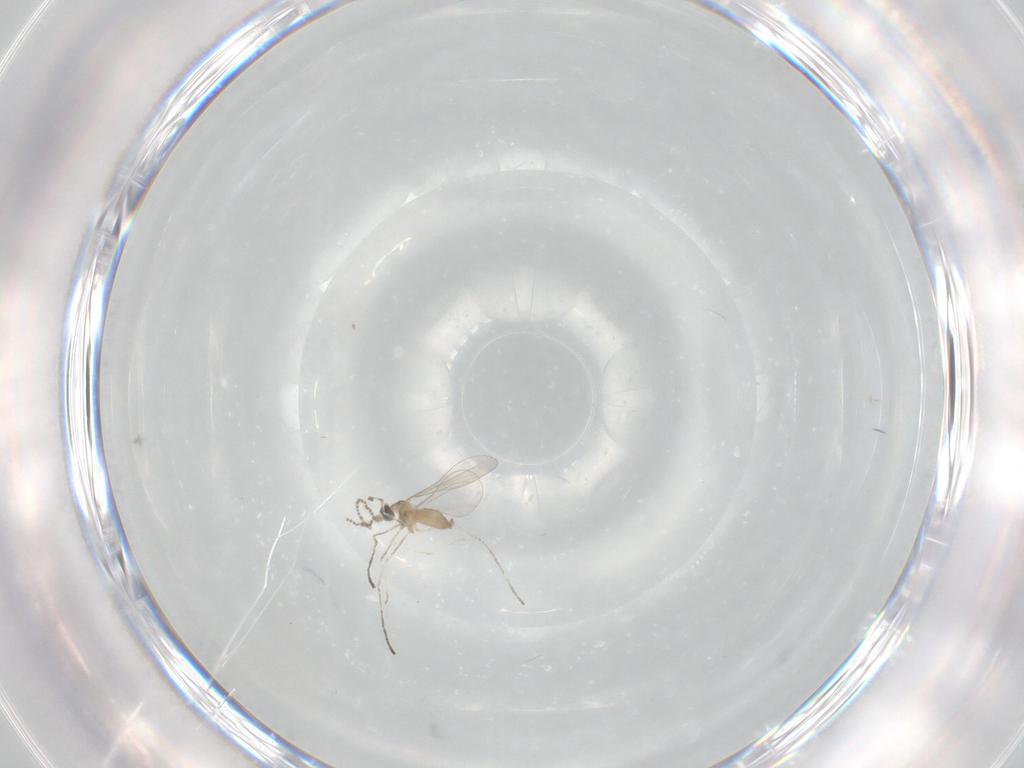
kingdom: Animalia
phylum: Arthropoda
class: Insecta
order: Diptera
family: Cecidomyiidae
